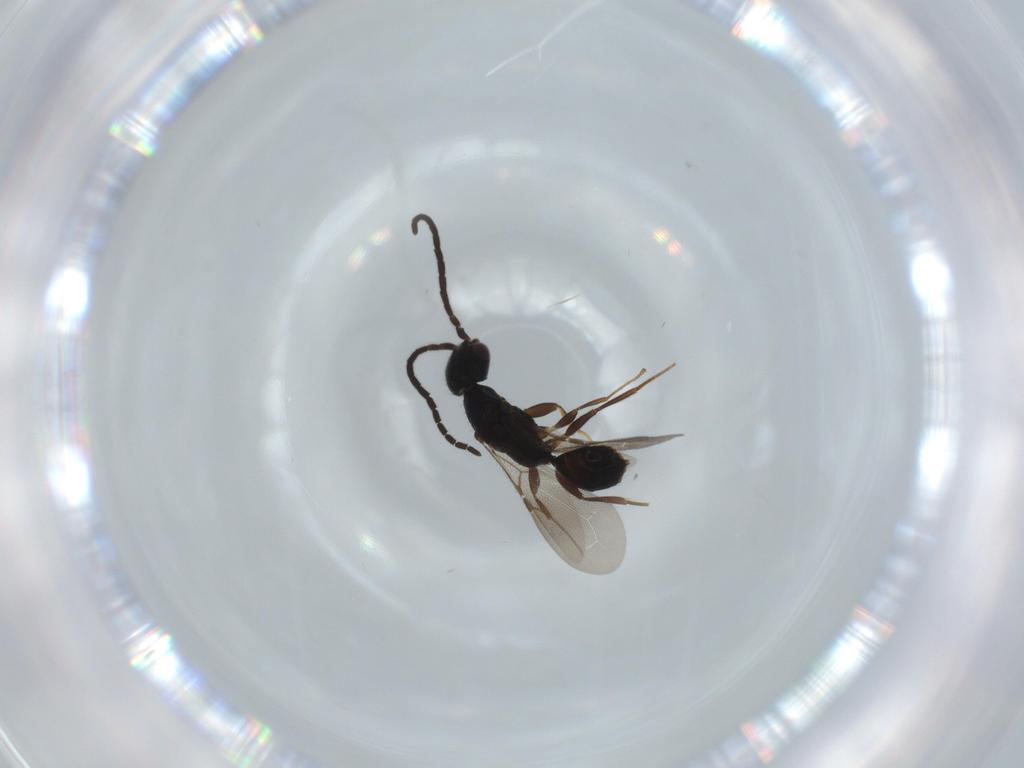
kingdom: Animalia
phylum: Arthropoda
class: Insecta
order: Hymenoptera
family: Bethylidae
